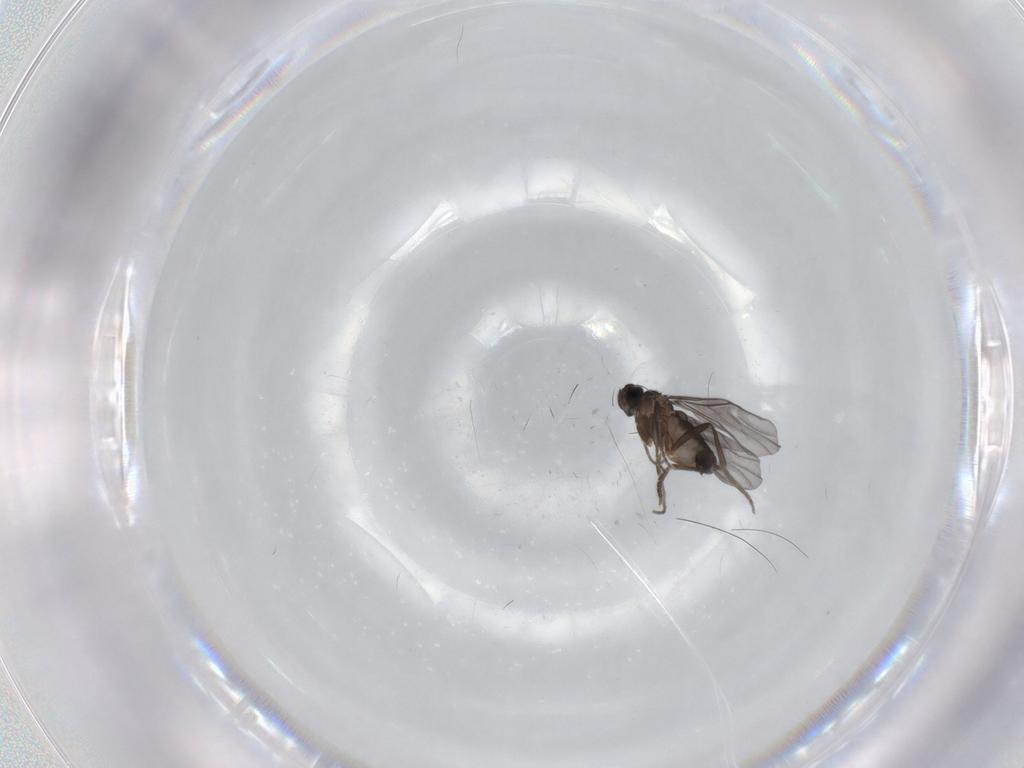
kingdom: Animalia
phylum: Arthropoda
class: Insecta
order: Diptera
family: Phoridae
